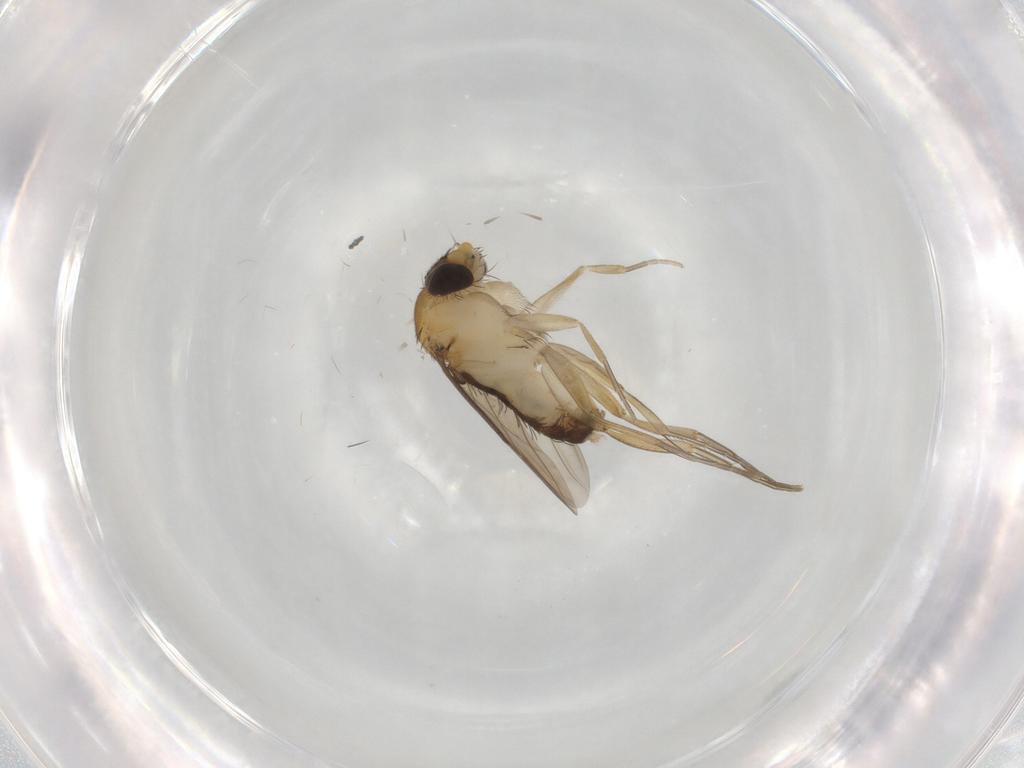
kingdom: Animalia
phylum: Arthropoda
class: Insecta
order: Diptera
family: Phoridae
